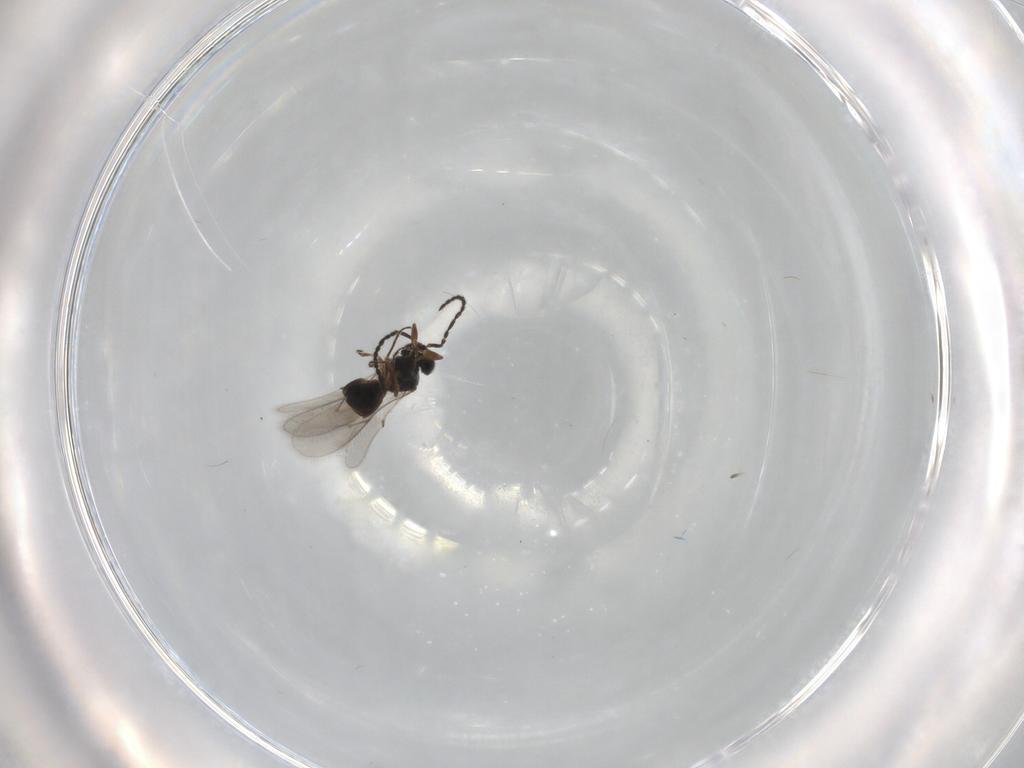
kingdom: Animalia
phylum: Arthropoda
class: Insecta
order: Hymenoptera
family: Scelionidae
